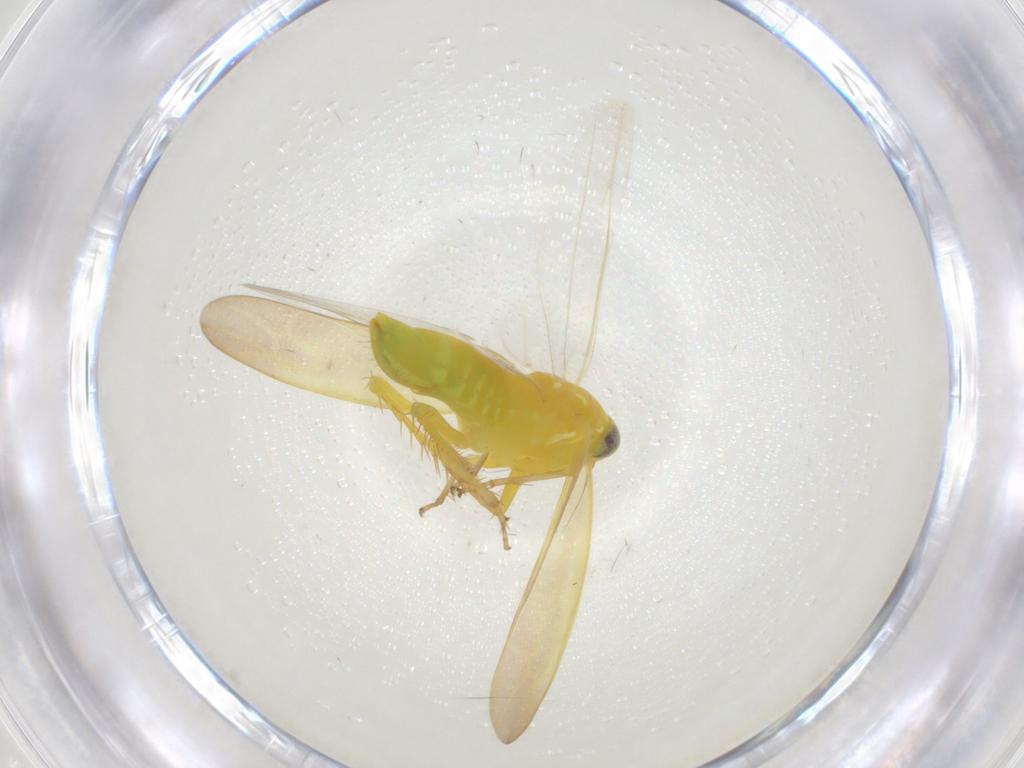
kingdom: Animalia
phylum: Arthropoda
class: Insecta
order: Hemiptera
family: Cicadellidae
